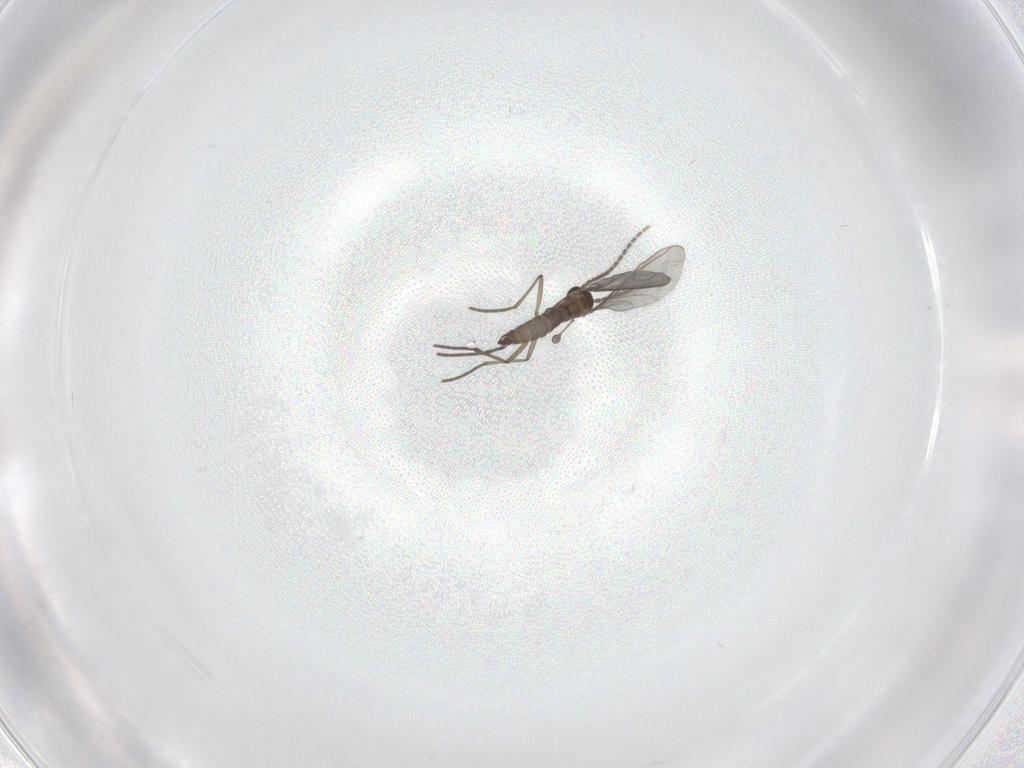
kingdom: Animalia
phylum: Arthropoda
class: Insecta
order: Diptera
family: Sciaridae
